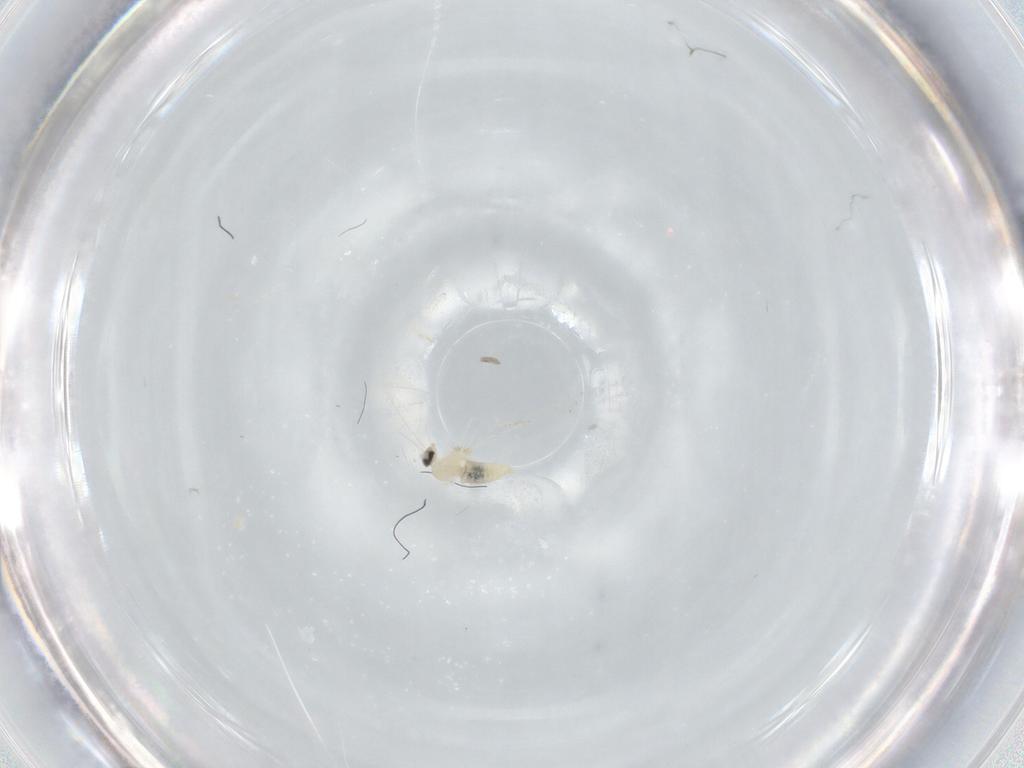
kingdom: Animalia
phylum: Arthropoda
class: Insecta
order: Diptera
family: Cecidomyiidae
